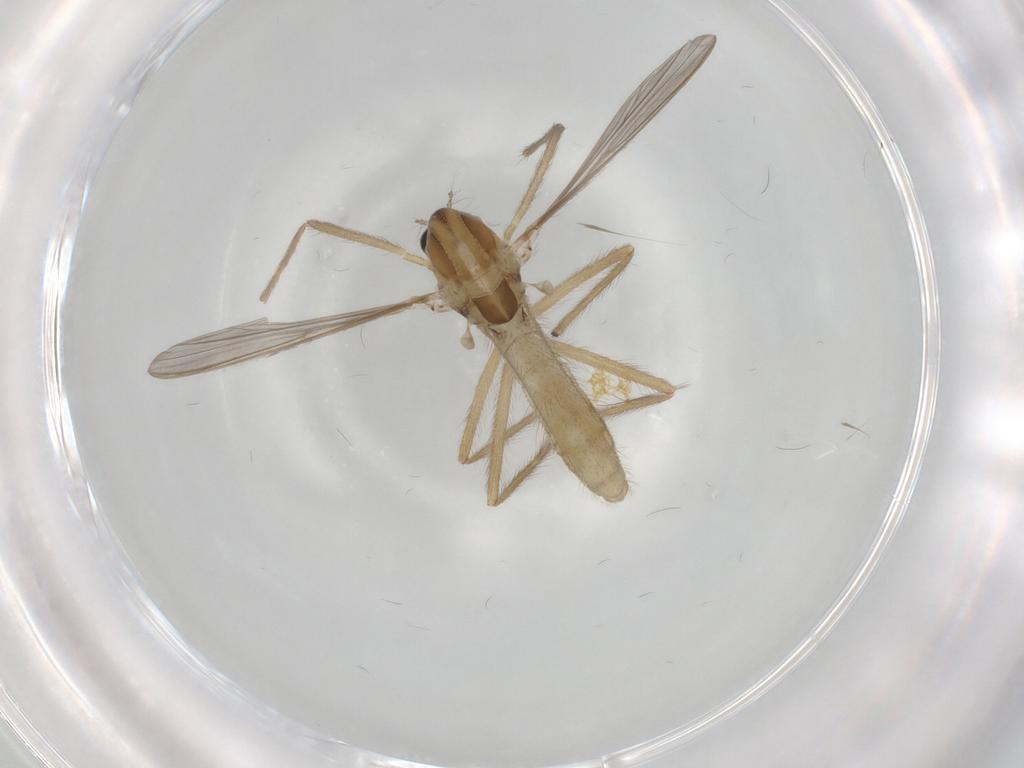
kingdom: Animalia
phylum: Arthropoda
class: Insecta
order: Diptera
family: Chironomidae
